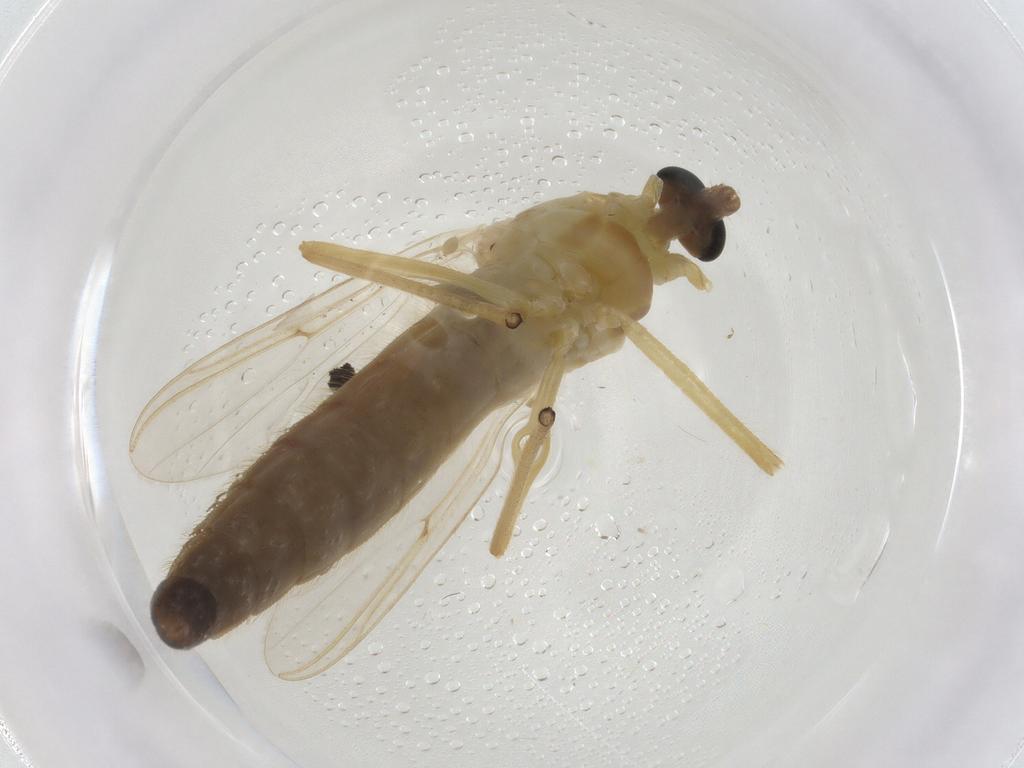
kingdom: Animalia
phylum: Arthropoda
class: Insecta
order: Diptera
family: Chironomidae
